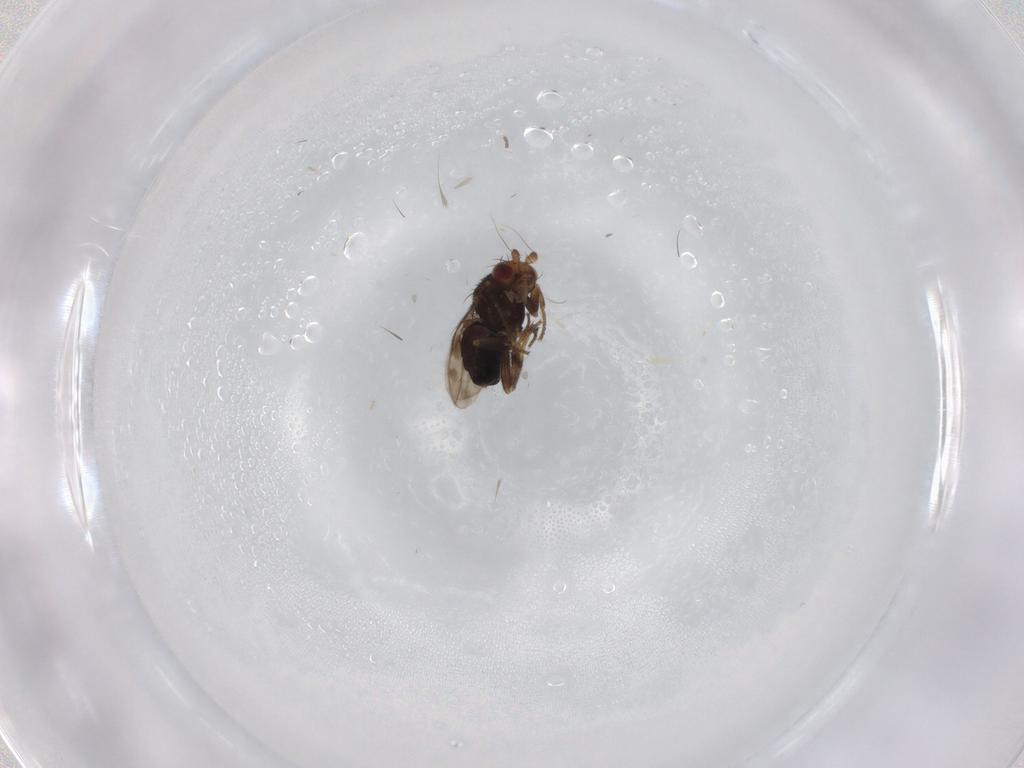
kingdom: Animalia
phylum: Arthropoda
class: Insecta
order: Diptera
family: Sphaeroceridae
